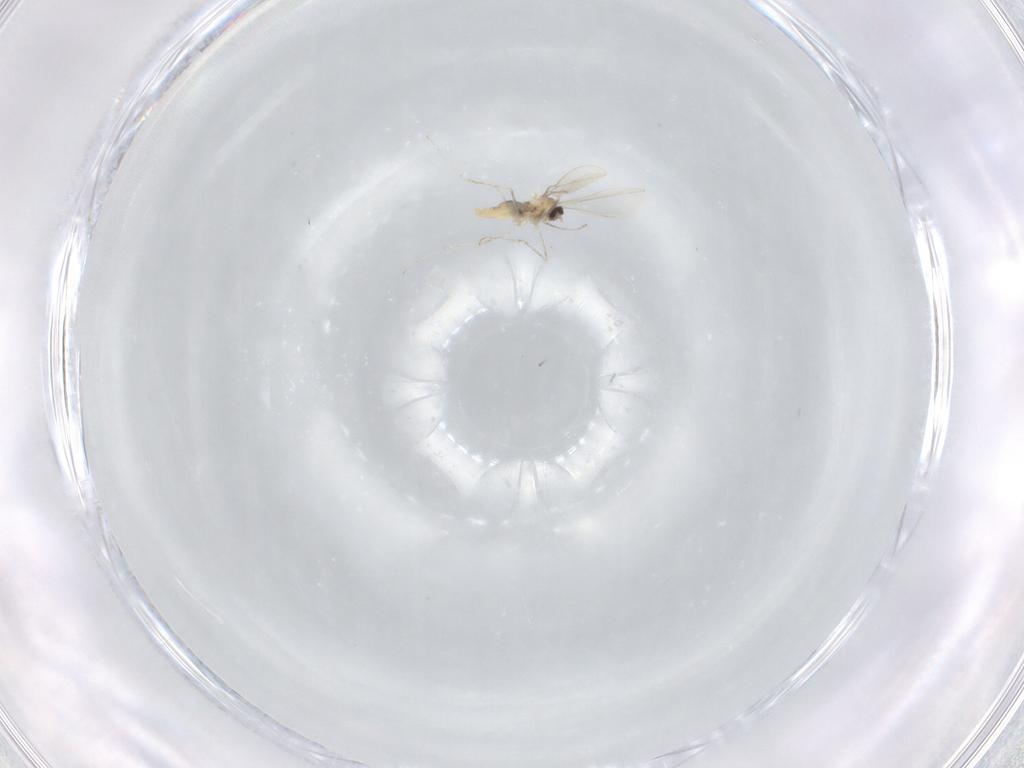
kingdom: Animalia
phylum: Arthropoda
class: Insecta
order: Diptera
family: Cecidomyiidae
